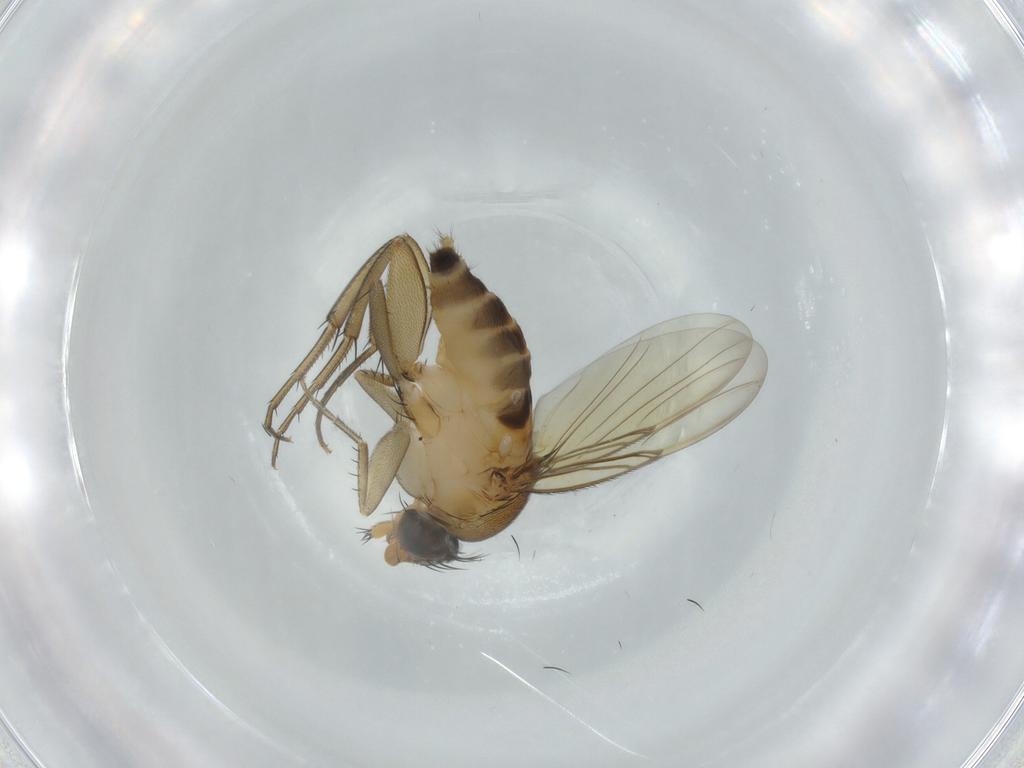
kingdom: Animalia
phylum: Arthropoda
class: Insecta
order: Diptera
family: Phoridae
